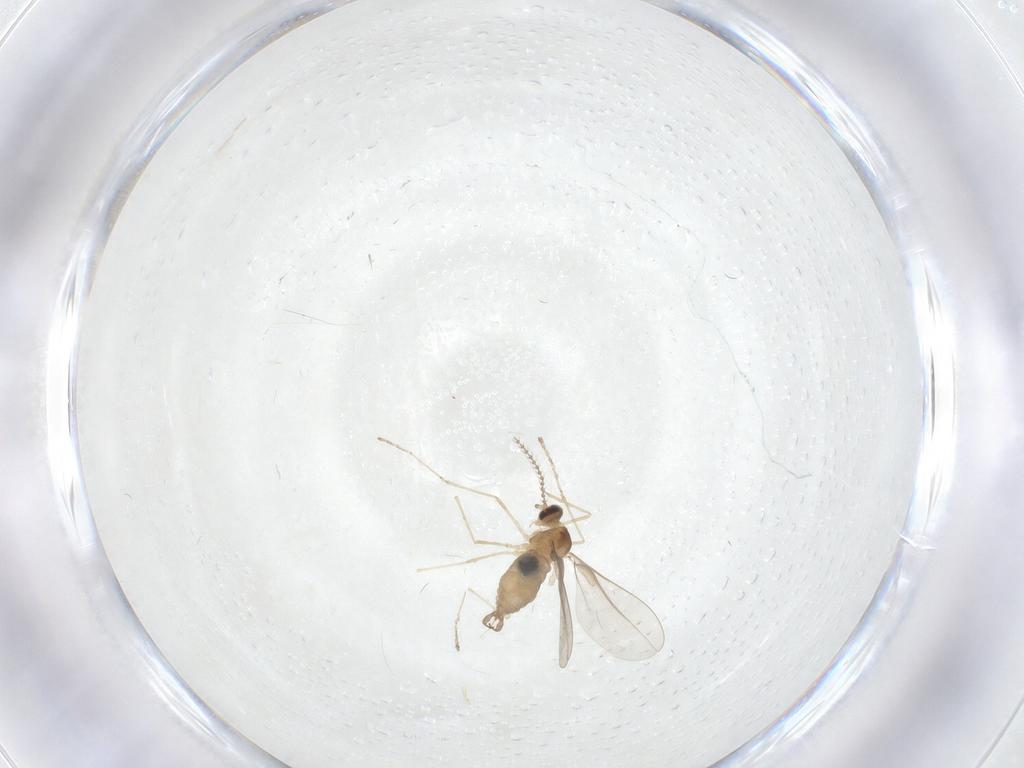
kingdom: Animalia
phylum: Arthropoda
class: Insecta
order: Diptera
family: Cecidomyiidae
